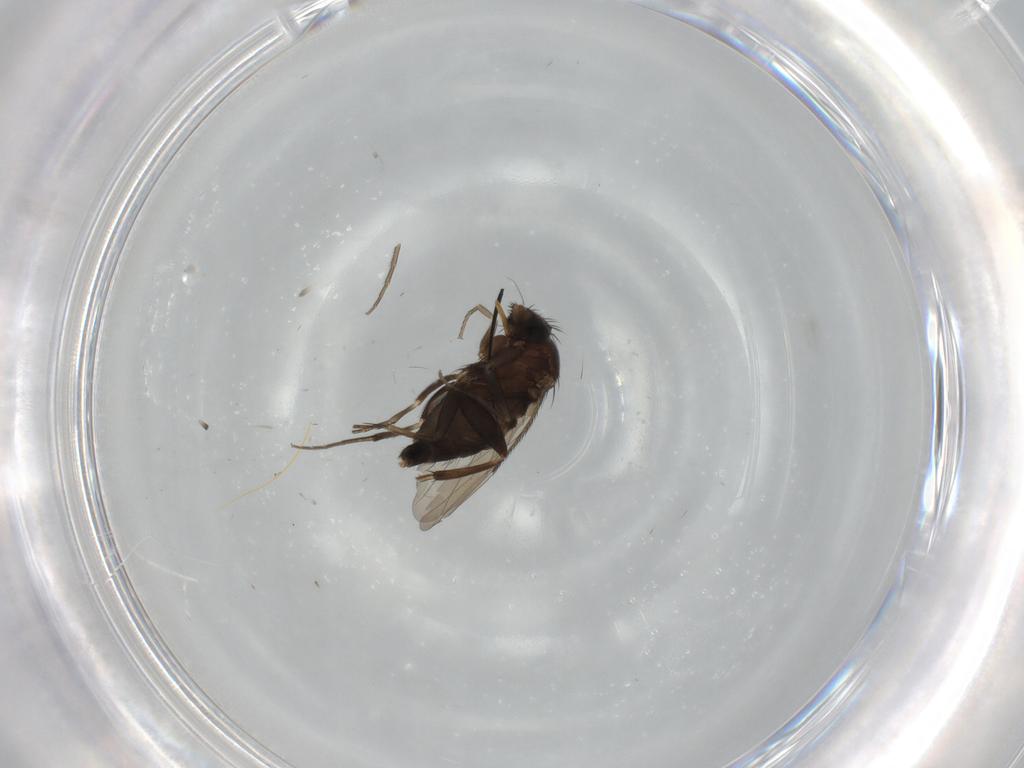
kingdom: Animalia
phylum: Arthropoda
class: Insecta
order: Diptera
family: Phoridae
